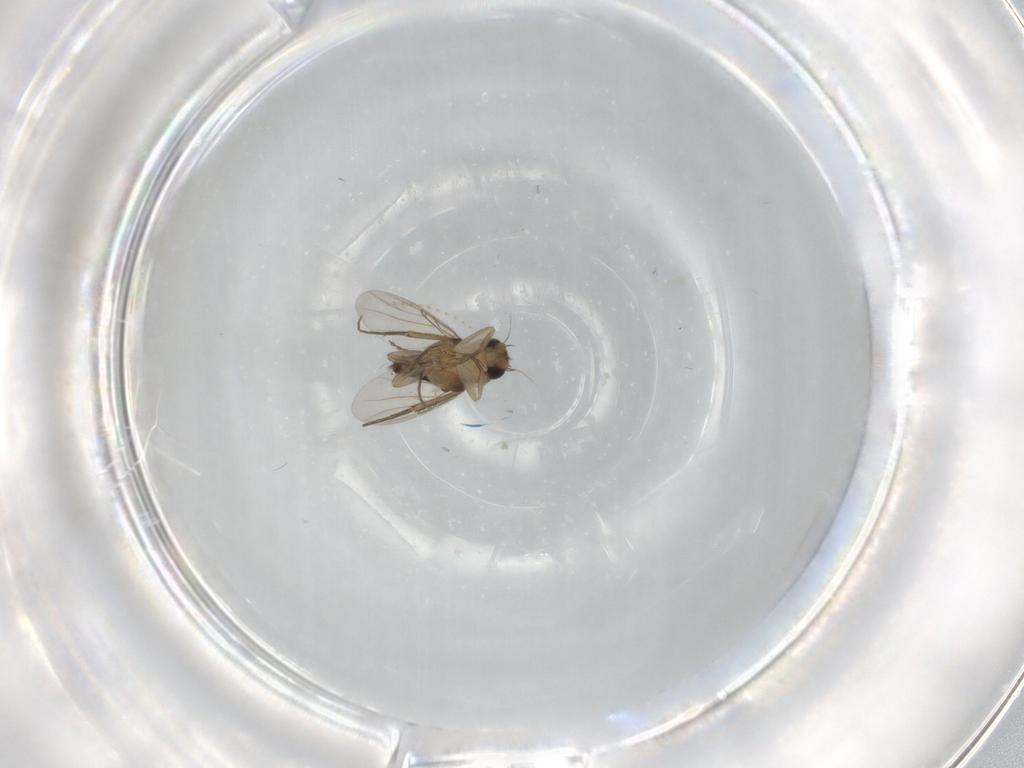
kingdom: Animalia
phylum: Arthropoda
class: Insecta
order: Diptera
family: Phoridae
